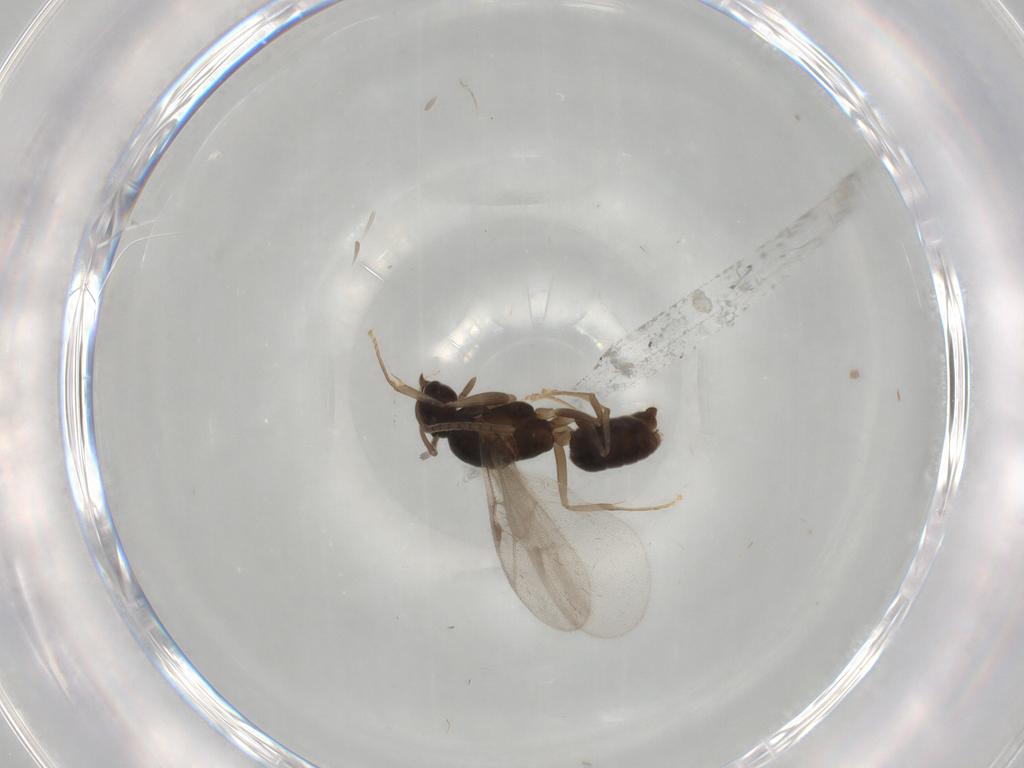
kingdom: Animalia
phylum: Arthropoda
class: Insecta
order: Hymenoptera
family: Formicidae
